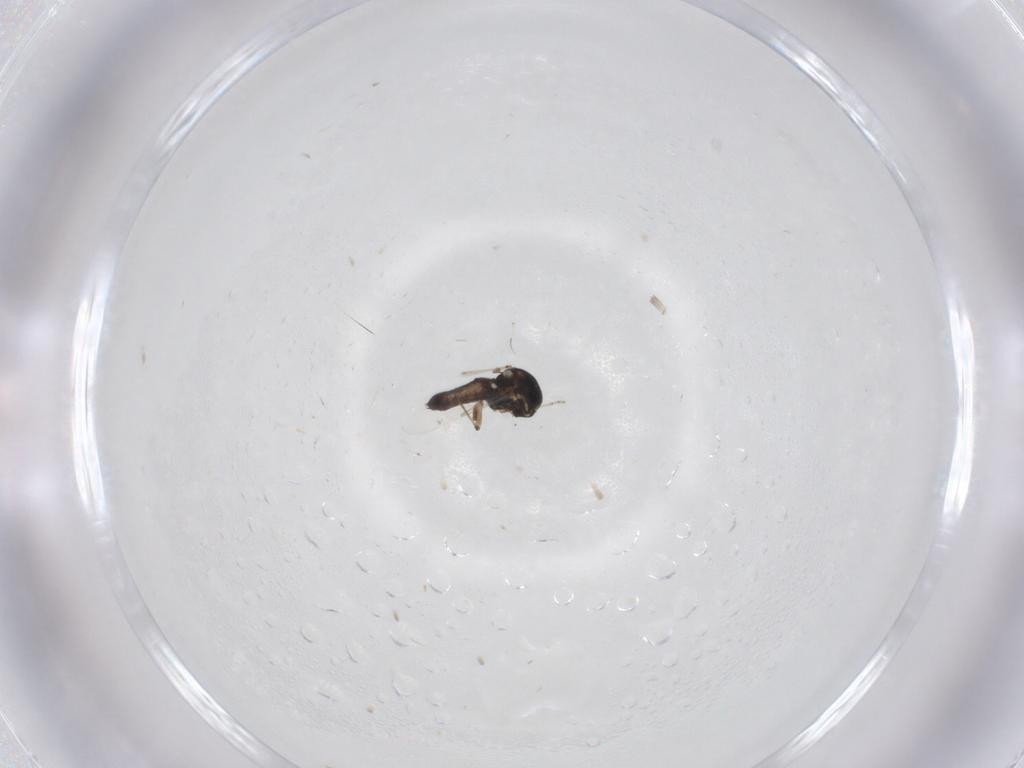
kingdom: Animalia
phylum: Arthropoda
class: Insecta
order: Diptera
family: Ceratopogonidae
